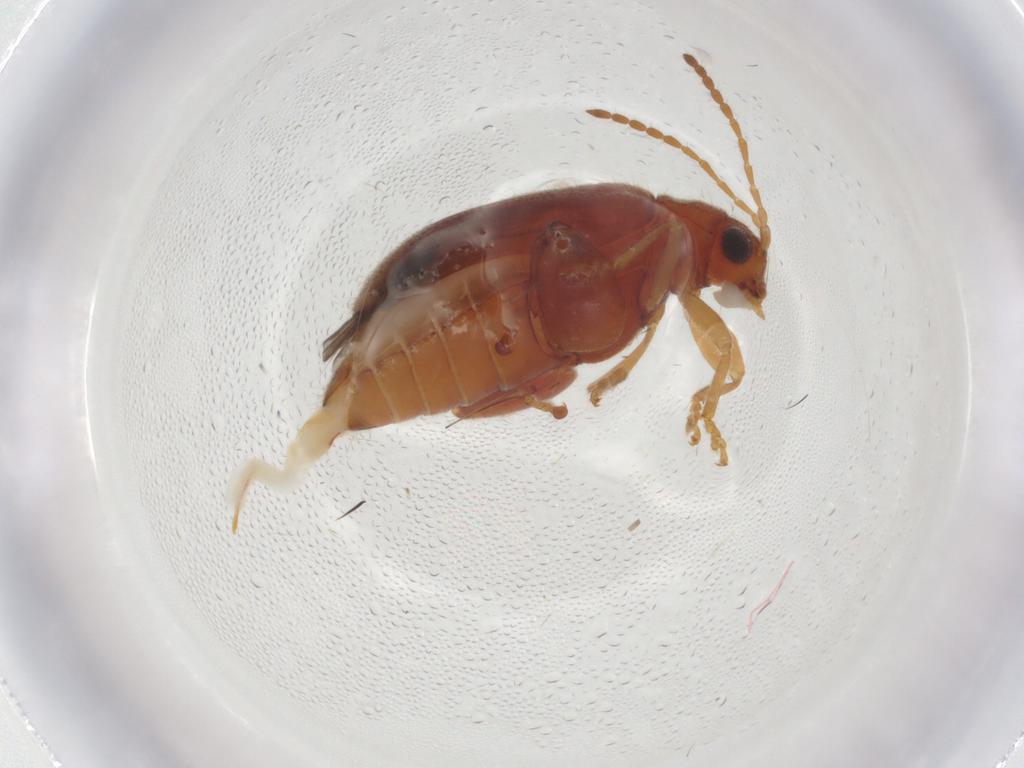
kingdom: Animalia
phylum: Arthropoda
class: Insecta
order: Coleoptera
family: Chrysomelidae
